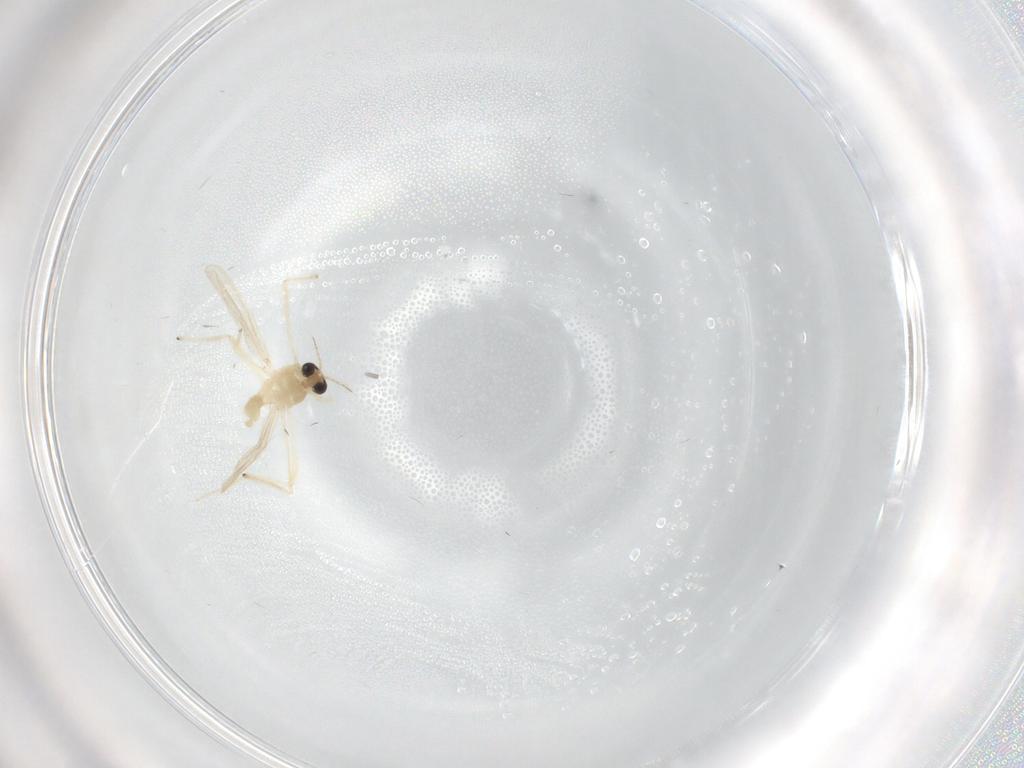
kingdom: Animalia
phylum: Arthropoda
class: Insecta
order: Diptera
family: Chironomidae
